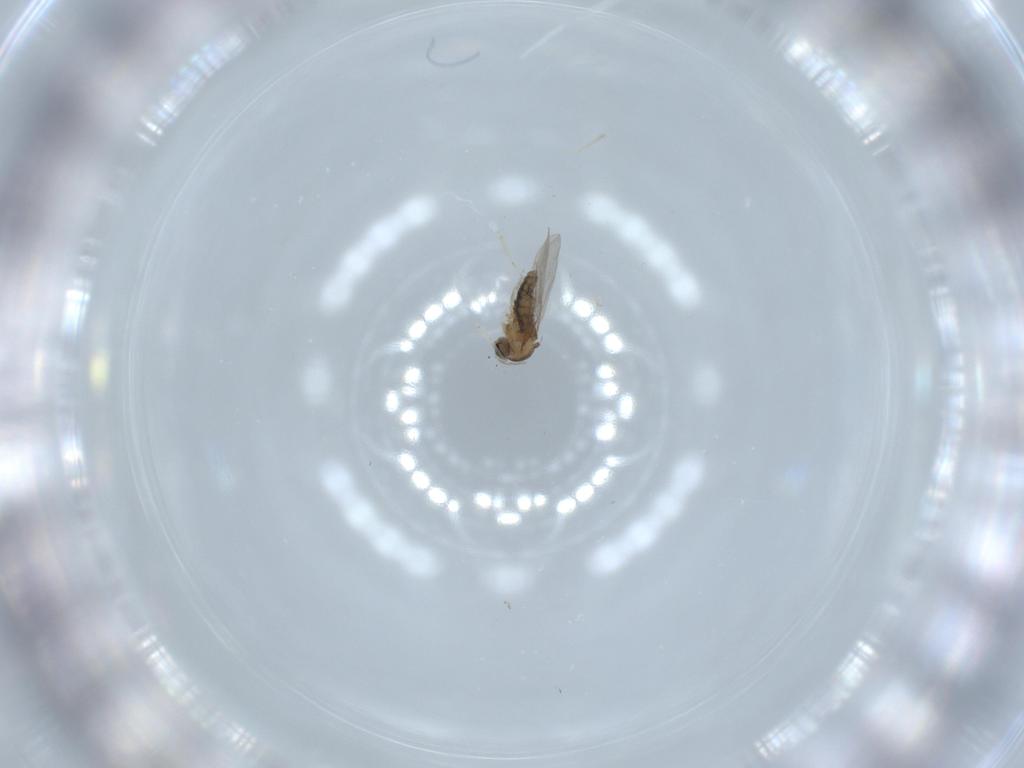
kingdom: Animalia
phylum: Arthropoda
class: Insecta
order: Diptera
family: Cecidomyiidae
